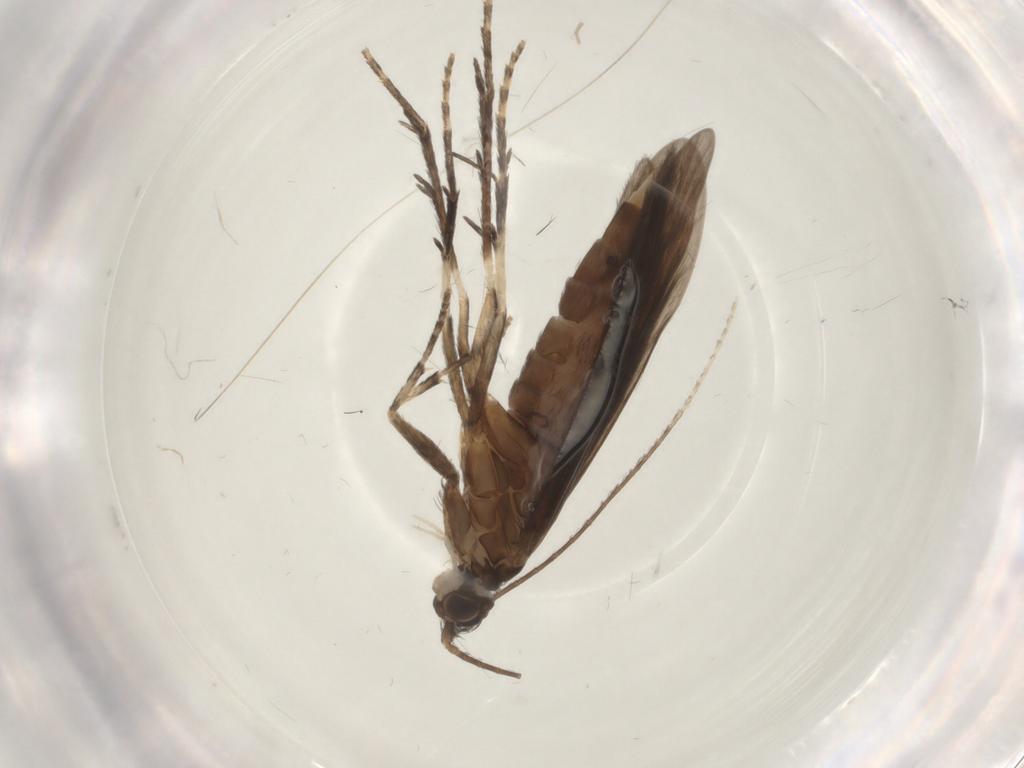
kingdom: Animalia
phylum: Arthropoda
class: Insecta
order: Trichoptera
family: Xiphocentronidae
